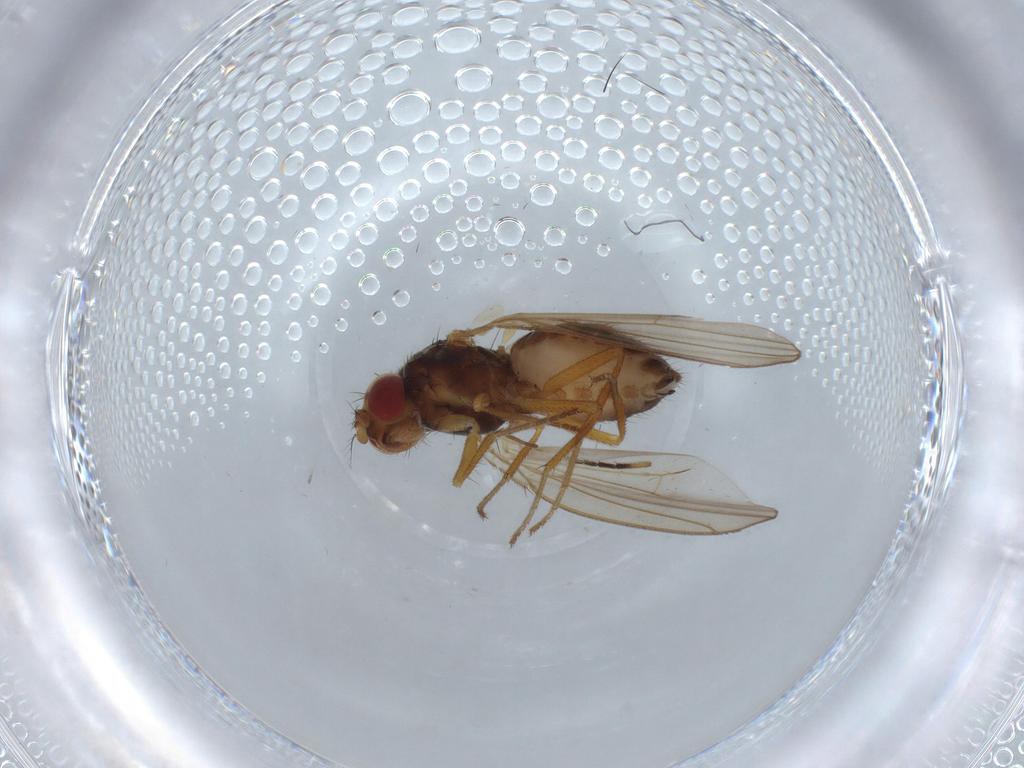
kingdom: Animalia
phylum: Arthropoda
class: Insecta
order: Diptera
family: Drosophilidae
